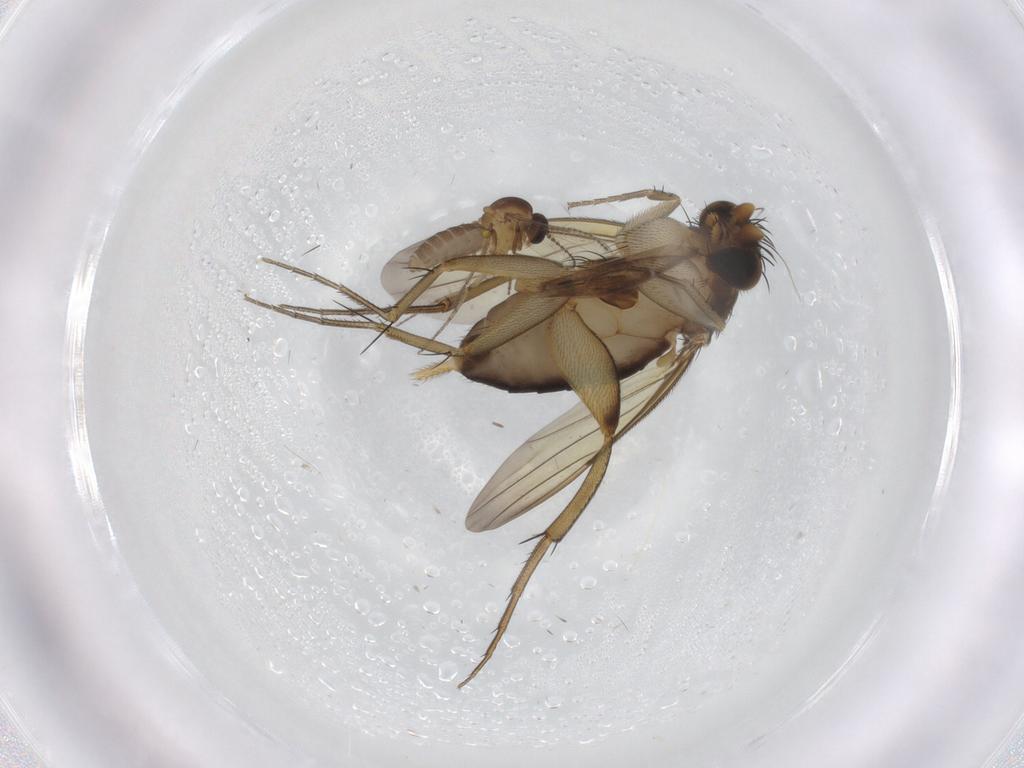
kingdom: Animalia
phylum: Arthropoda
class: Insecta
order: Diptera
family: Ceratopogonidae
